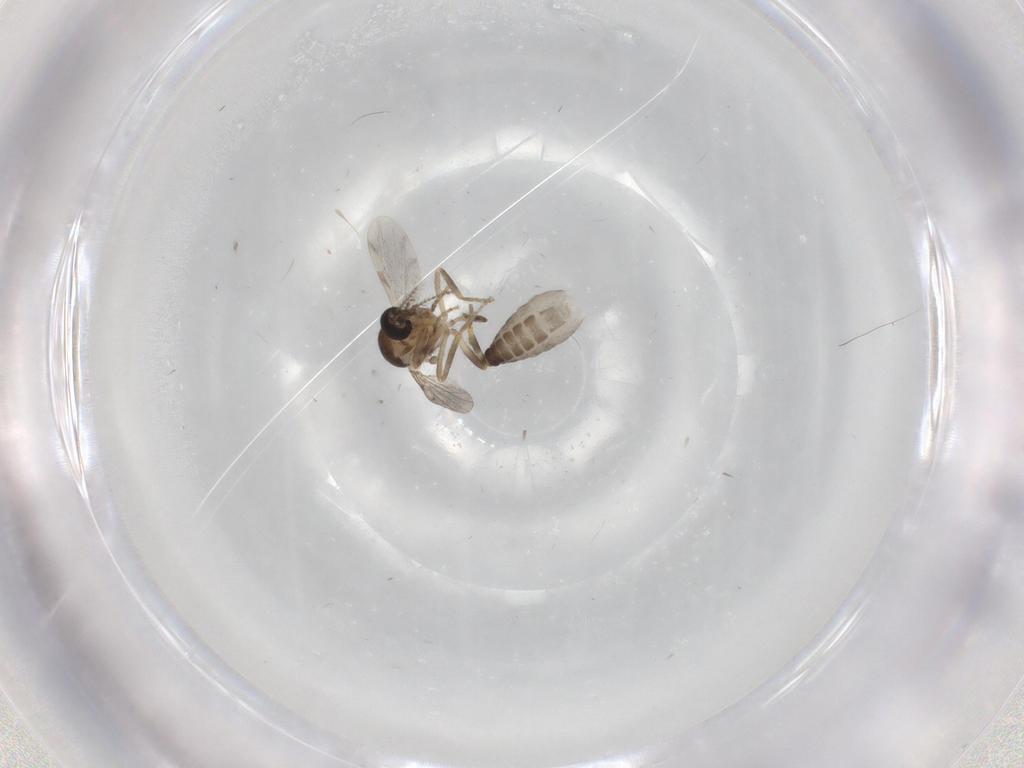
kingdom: Animalia
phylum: Arthropoda
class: Insecta
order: Diptera
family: Ceratopogonidae
